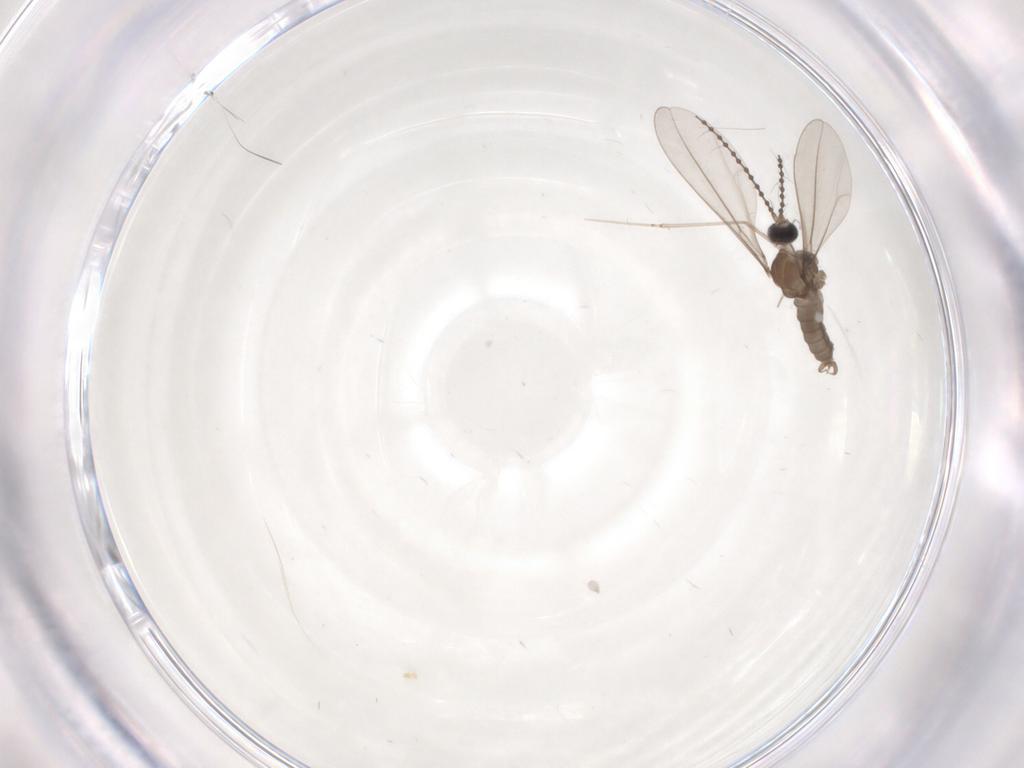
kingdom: Animalia
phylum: Arthropoda
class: Insecta
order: Diptera
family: Cecidomyiidae
